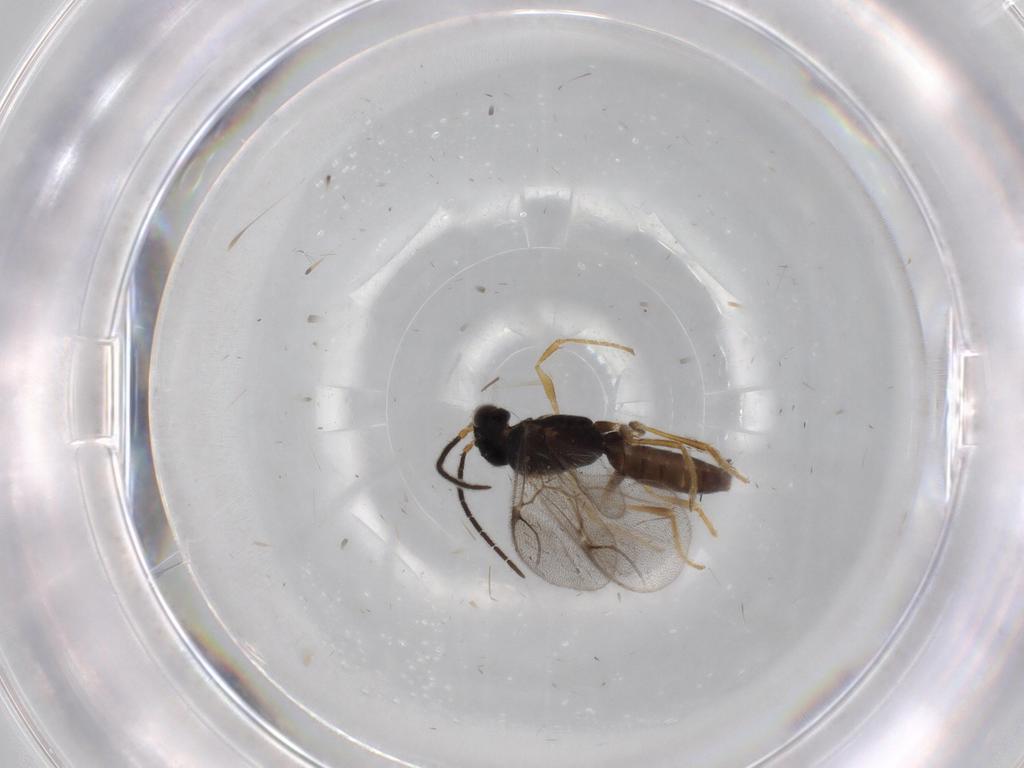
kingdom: Animalia
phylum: Arthropoda
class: Insecta
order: Hymenoptera
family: Dryinidae
